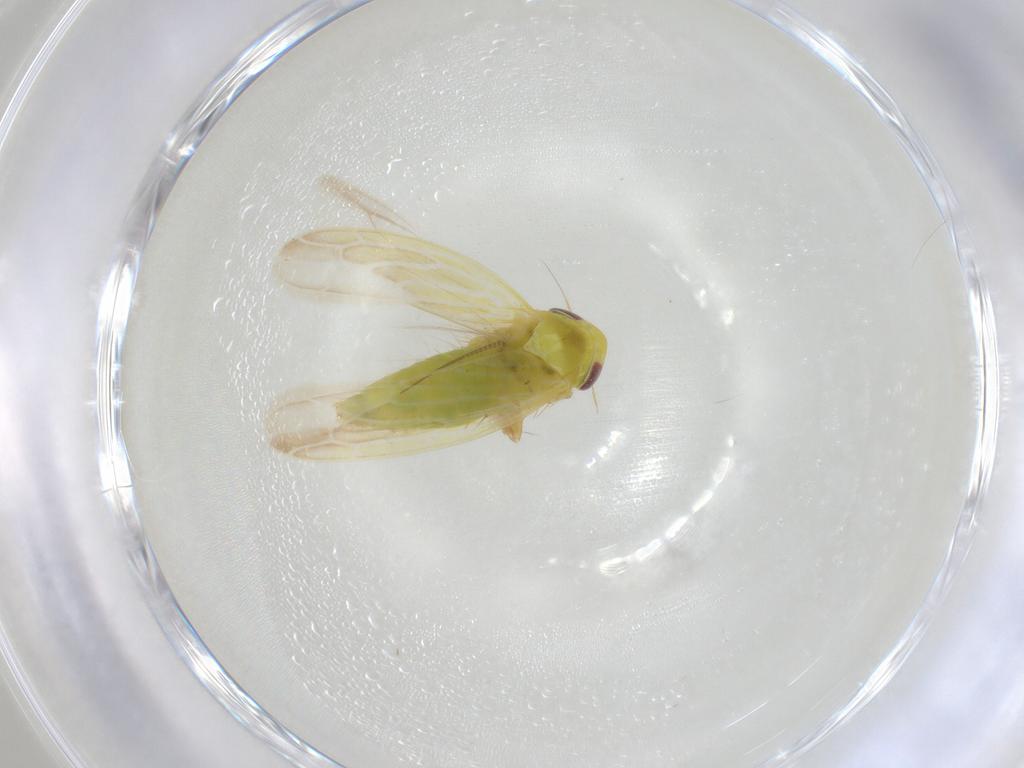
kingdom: Animalia
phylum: Arthropoda
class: Insecta
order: Hemiptera
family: Cicadellidae
